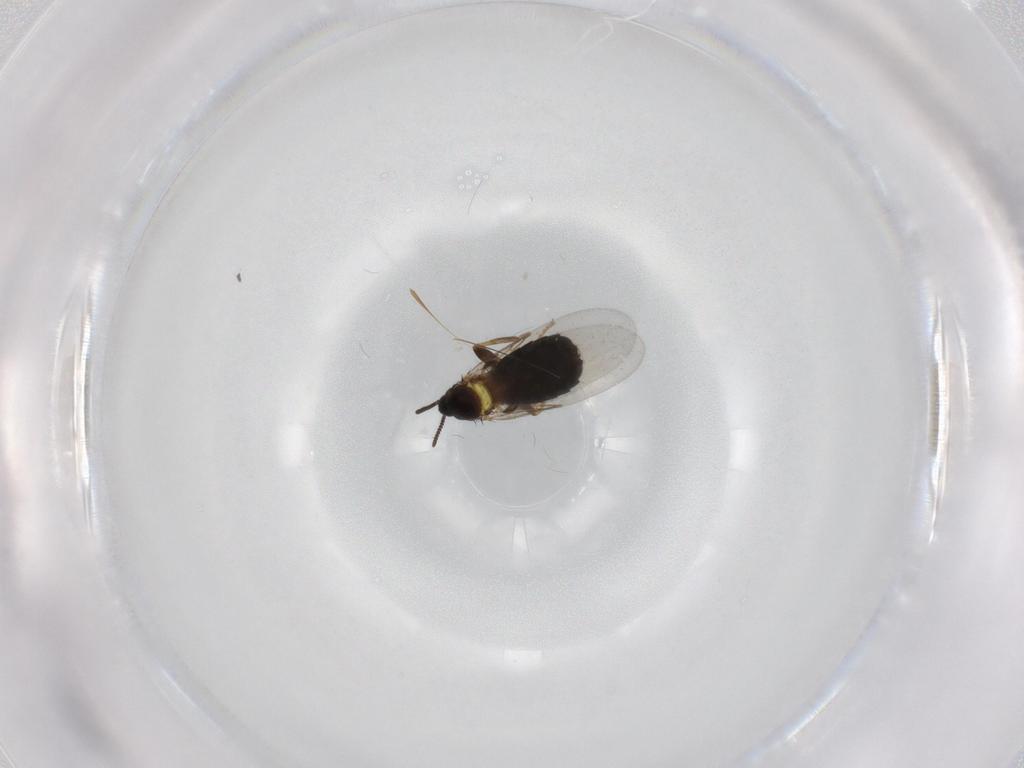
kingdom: Animalia
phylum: Arthropoda
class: Insecta
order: Diptera
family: Scatopsidae
